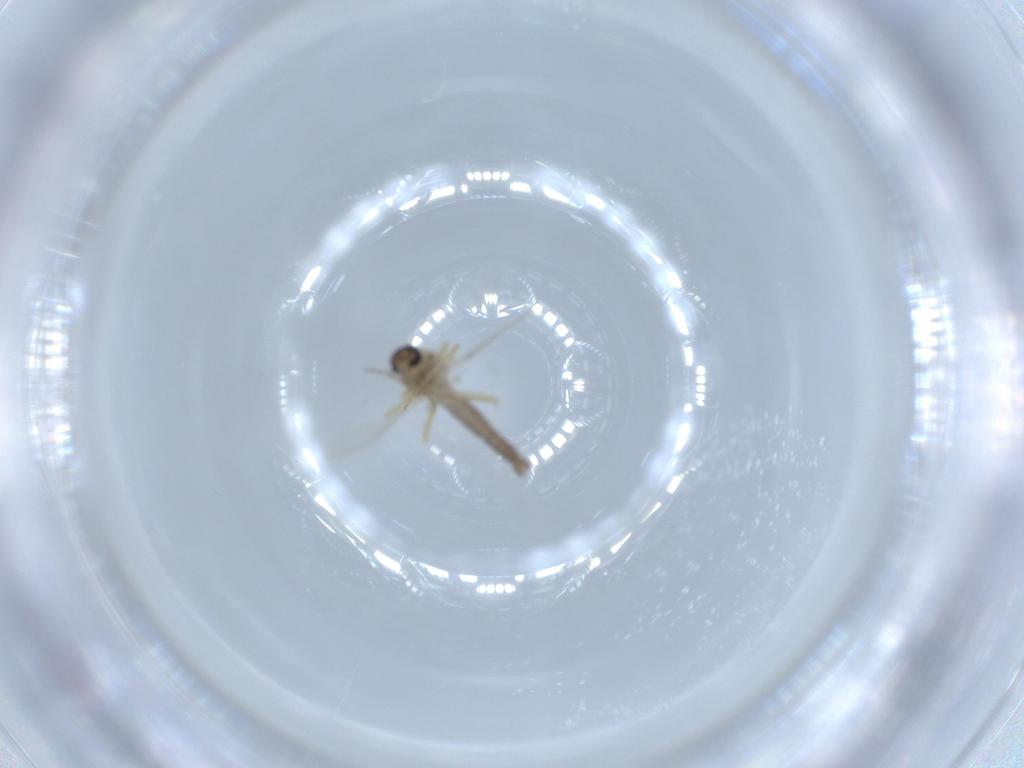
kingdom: Animalia
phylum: Arthropoda
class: Insecta
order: Diptera
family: Ceratopogonidae
